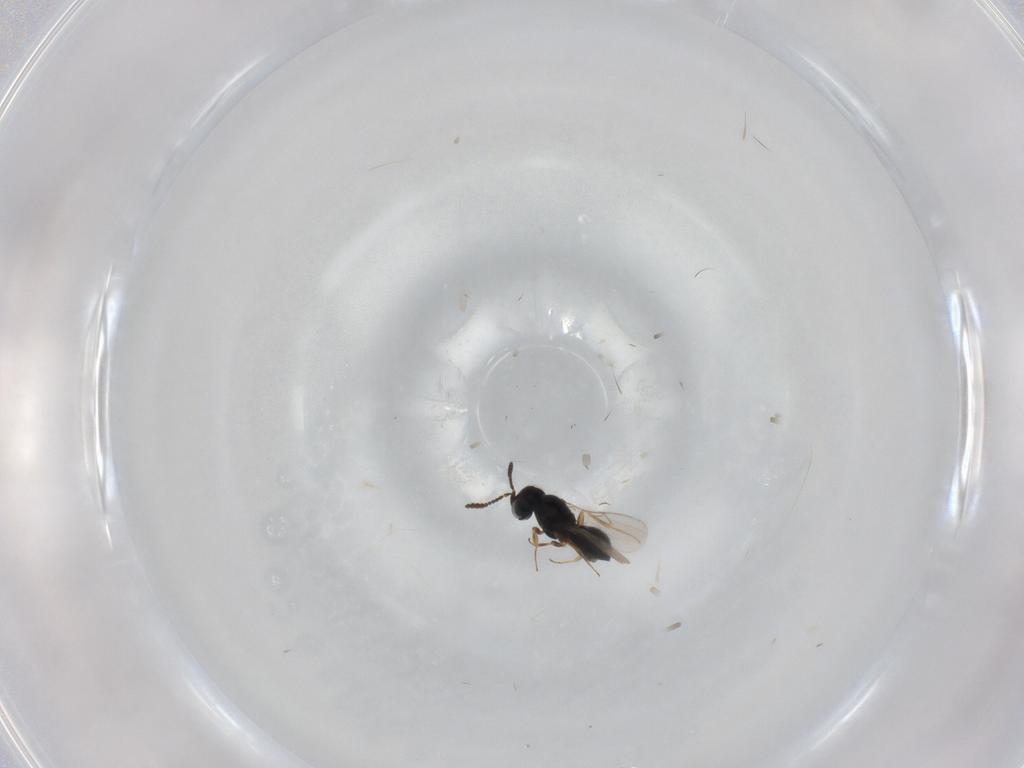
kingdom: Animalia
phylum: Arthropoda
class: Insecta
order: Hymenoptera
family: Scelionidae
